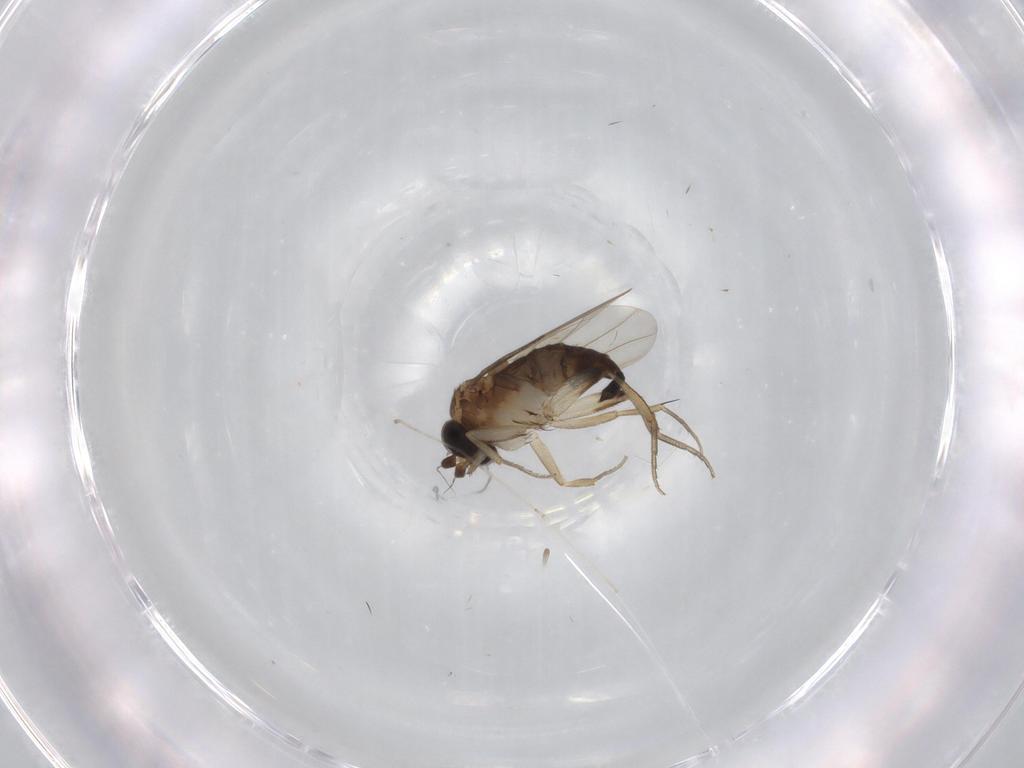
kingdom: Animalia
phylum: Arthropoda
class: Insecta
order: Diptera
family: Phoridae
